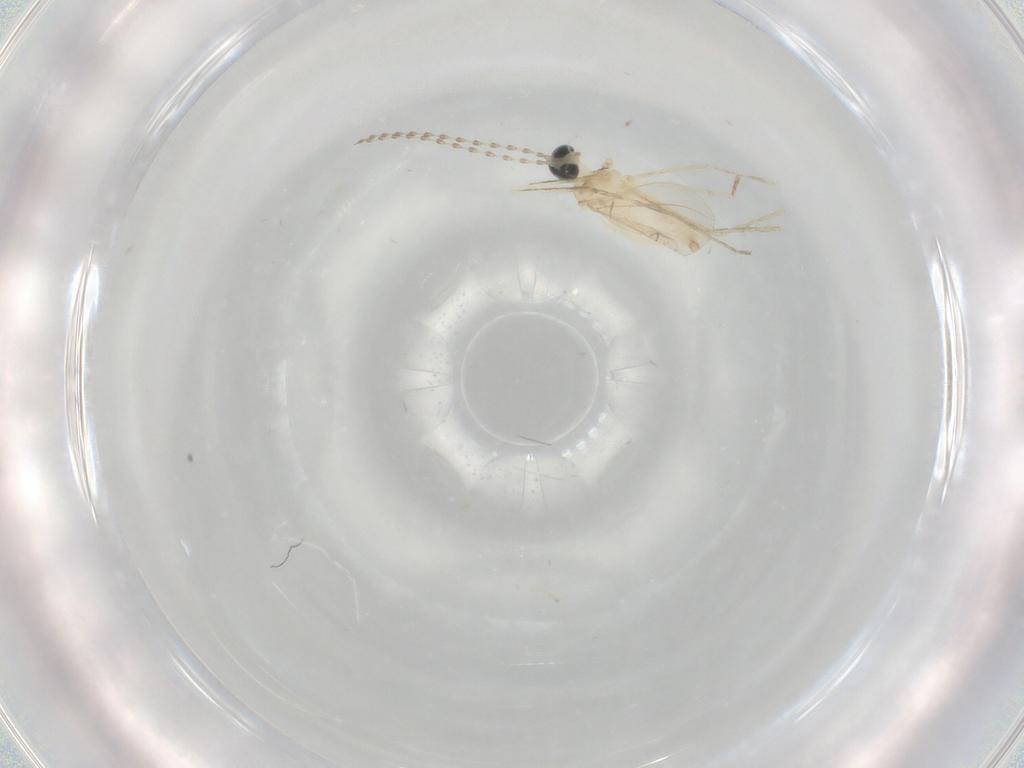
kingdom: Animalia
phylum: Arthropoda
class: Insecta
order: Diptera
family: Cecidomyiidae
